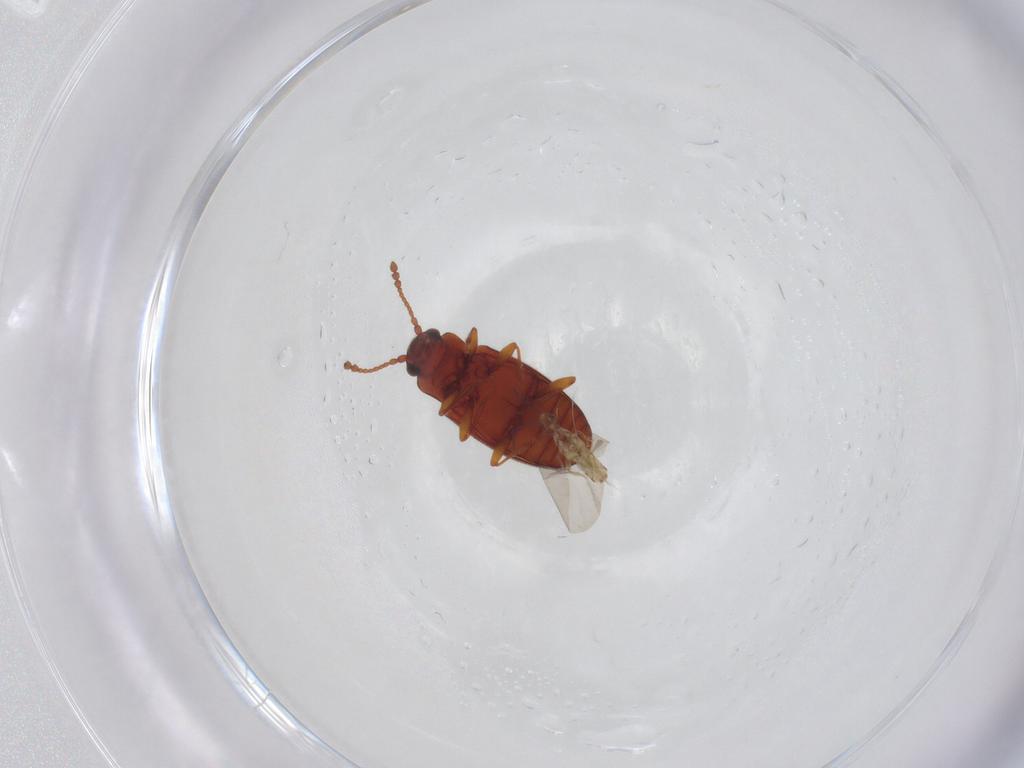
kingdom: Animalia
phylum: Arthropoda
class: Insecta
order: Coleoptera
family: Cryptophagidae
